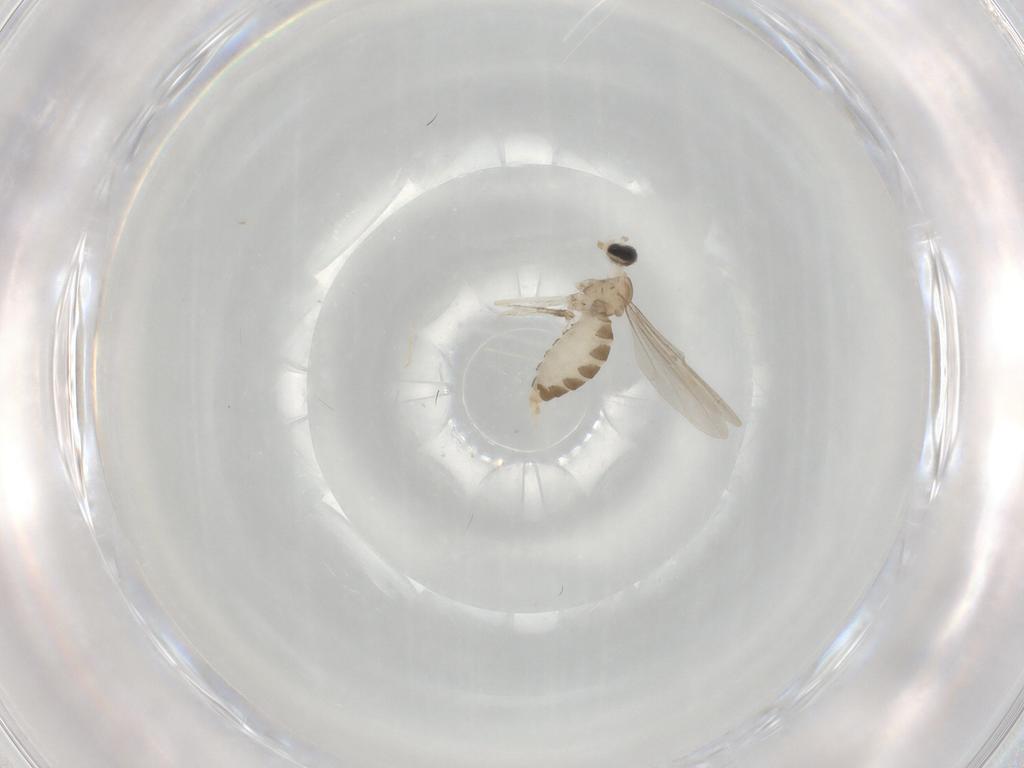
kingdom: Animalia
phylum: Arthropoda
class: Insecta
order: Diptera
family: Cecidomyiidae
